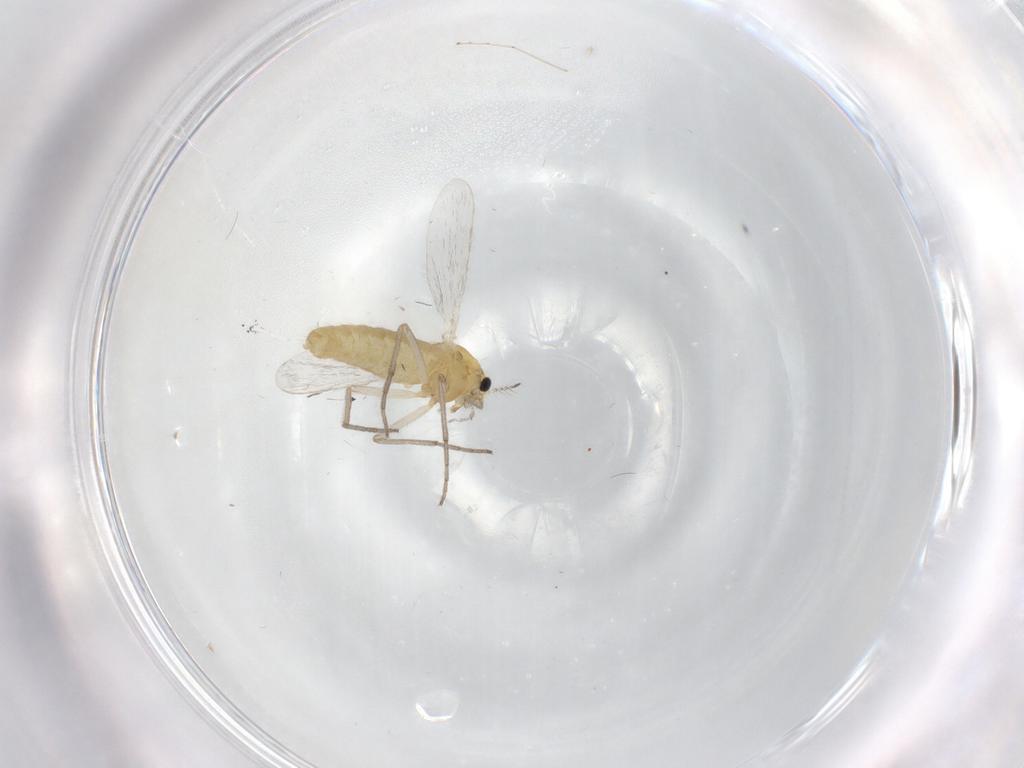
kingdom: Animalia
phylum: Arthropoda
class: Insecta
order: Diptera
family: Chironomidae
